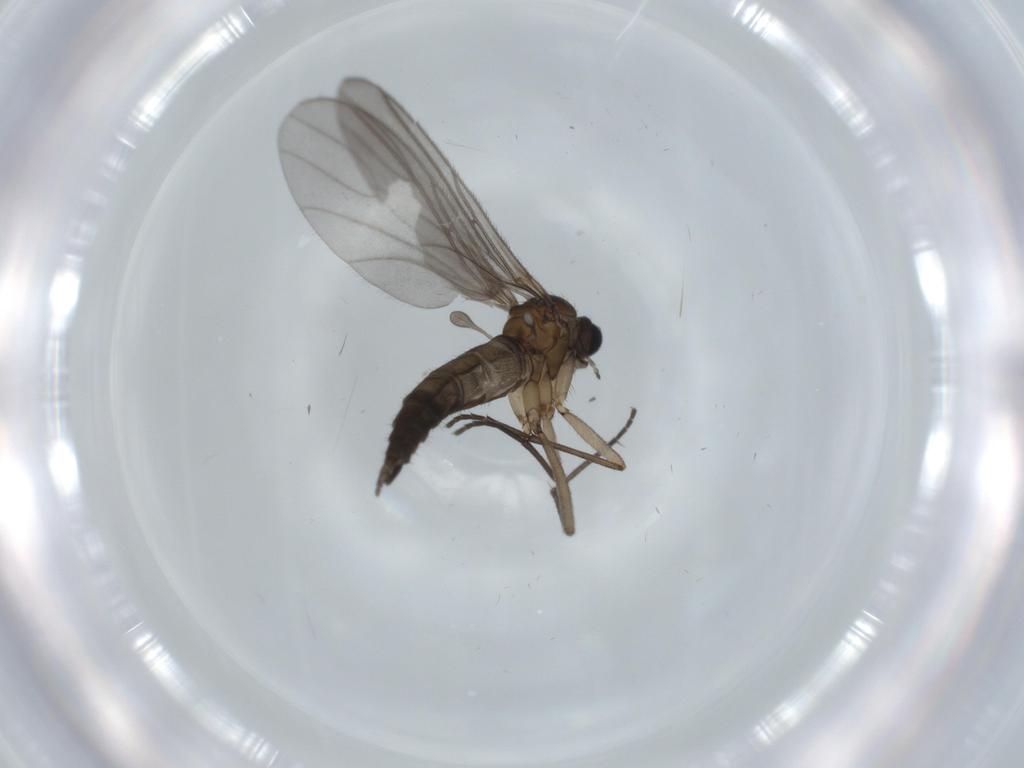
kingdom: Animalia
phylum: Arthropoda
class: Insecta
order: Diptera
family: Sciaridae
